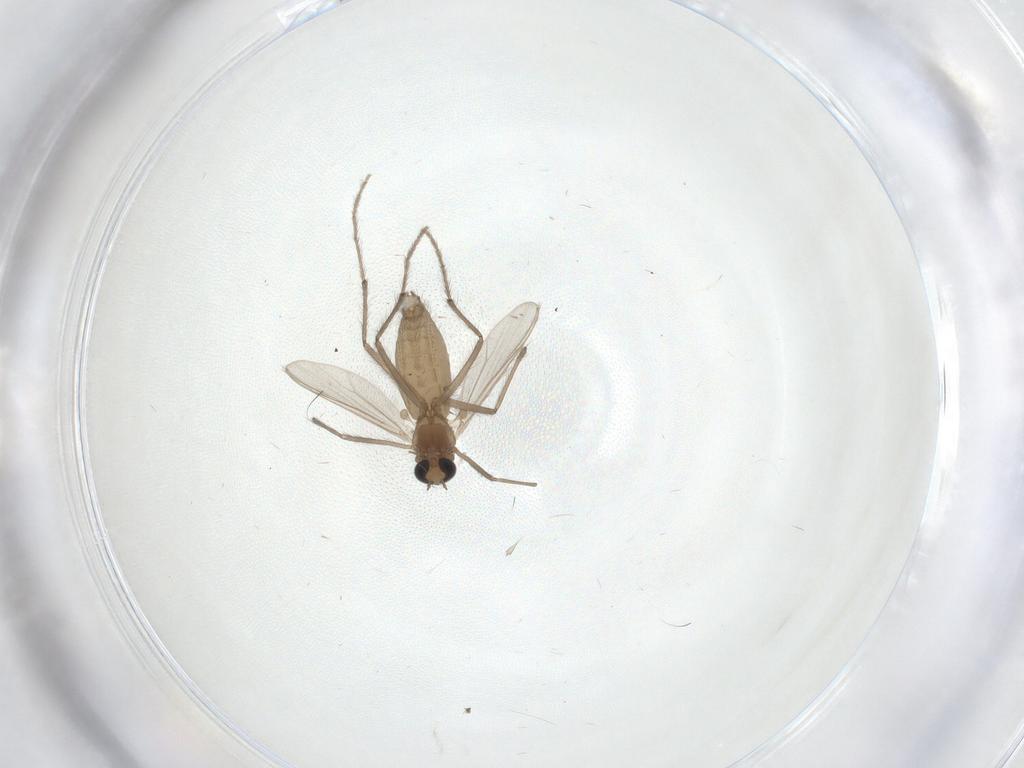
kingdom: Animalia
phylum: Arthropoda
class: Insecta
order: Diptera
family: Chironomidae
